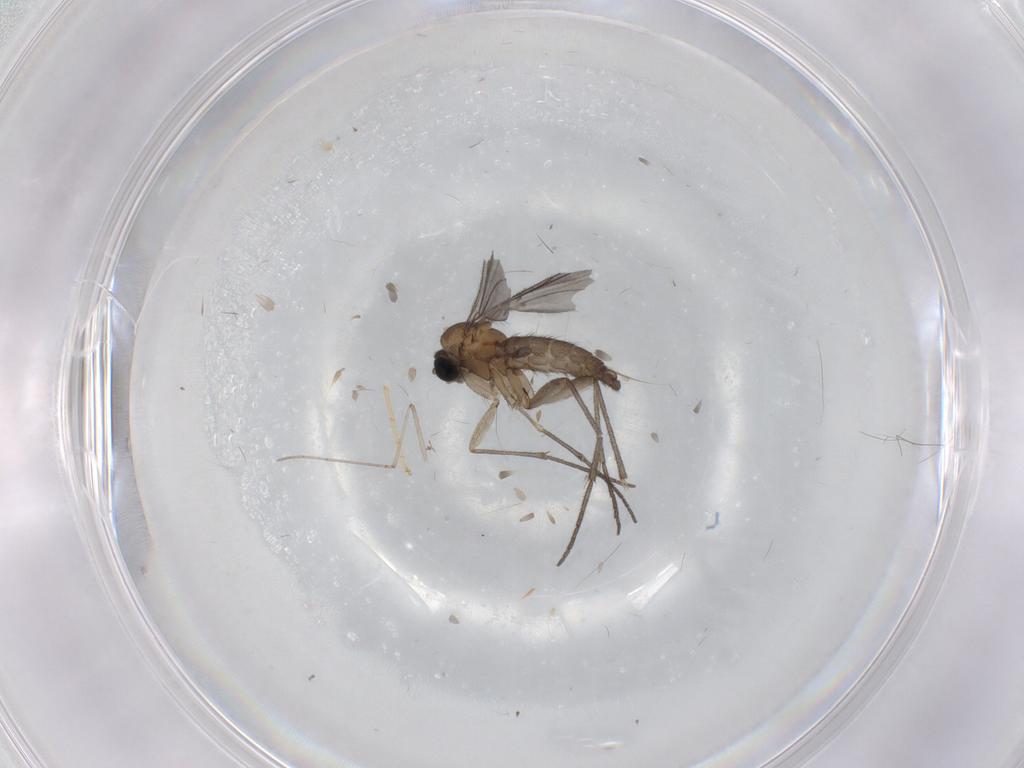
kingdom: Animalia
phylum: Arthropoda
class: Insecta
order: Diptera
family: Sciaridae
